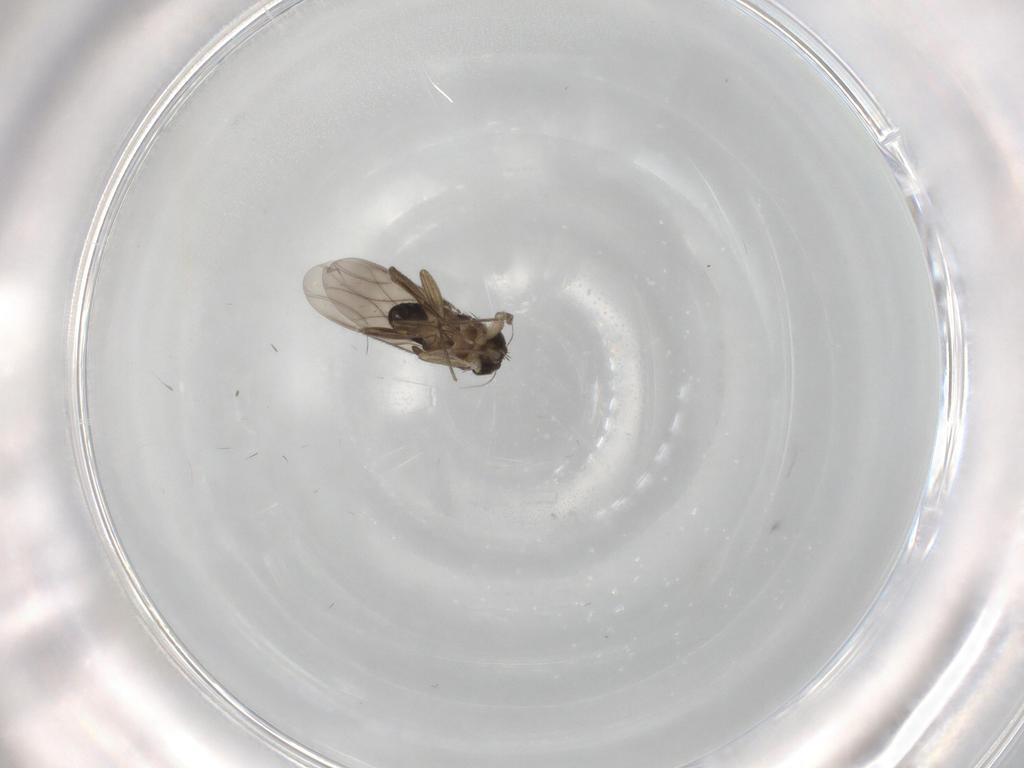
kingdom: Animalia
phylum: Arthropoda
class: Insecta
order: Diptera
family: Phoridae
